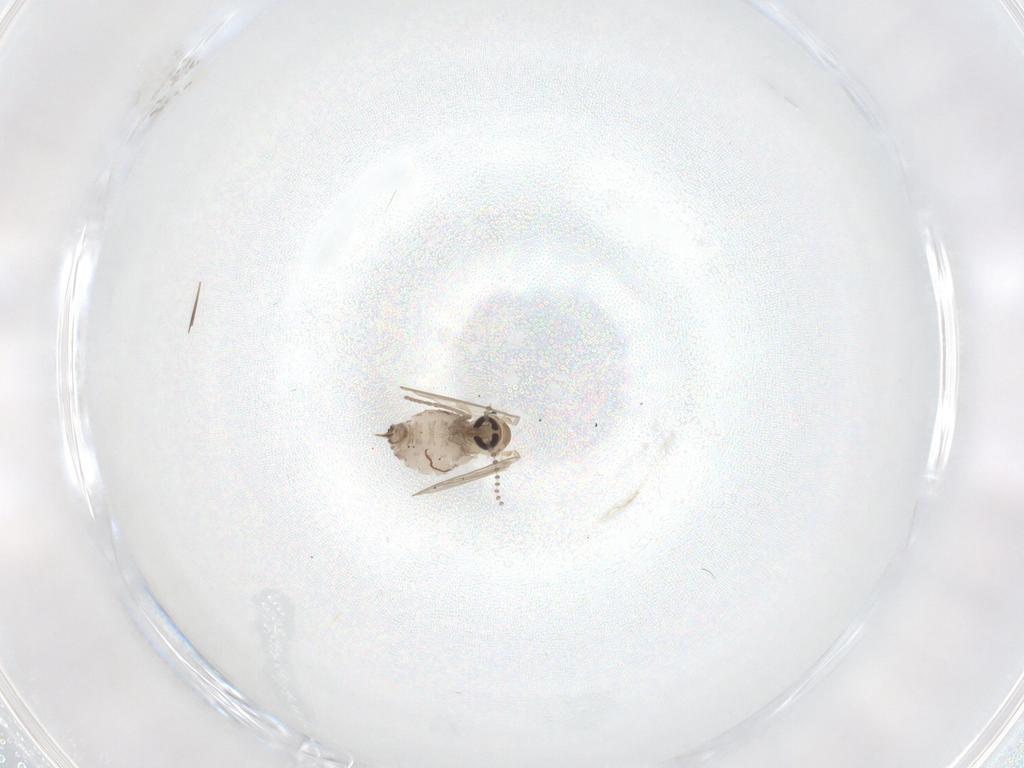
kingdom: Animalia
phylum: Arthropoda
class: Insecta
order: Diptera
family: Psychodidae
